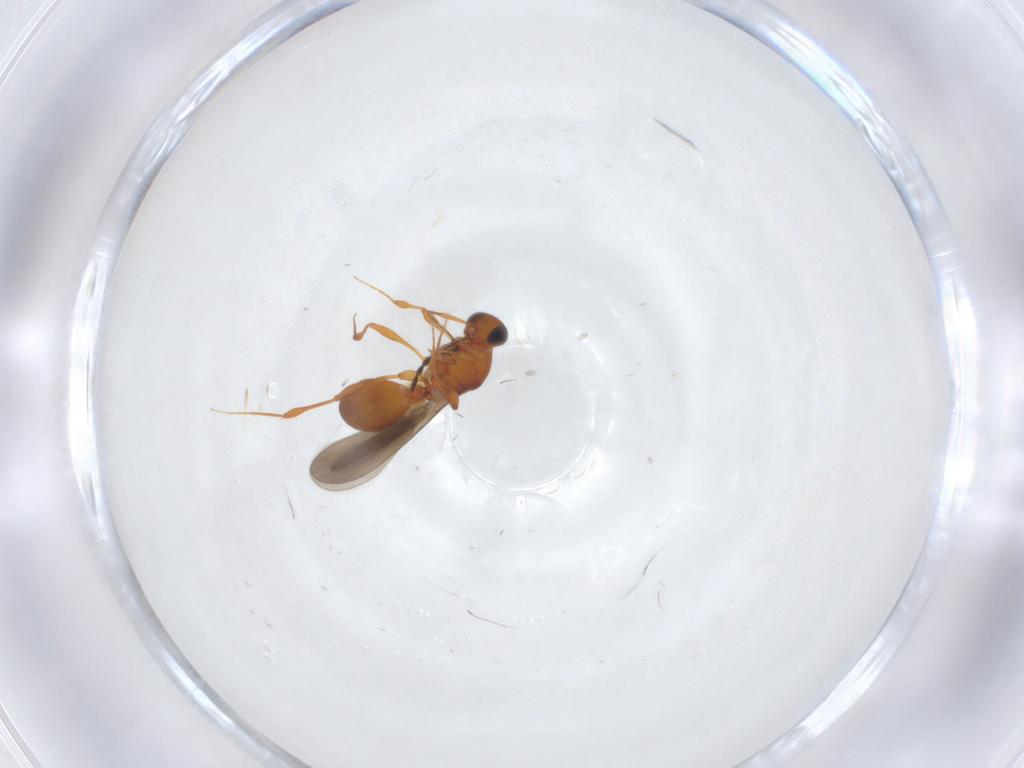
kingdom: Animalia
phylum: Arthropoda
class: Insecta
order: Hymenoptera
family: Platygastridae
